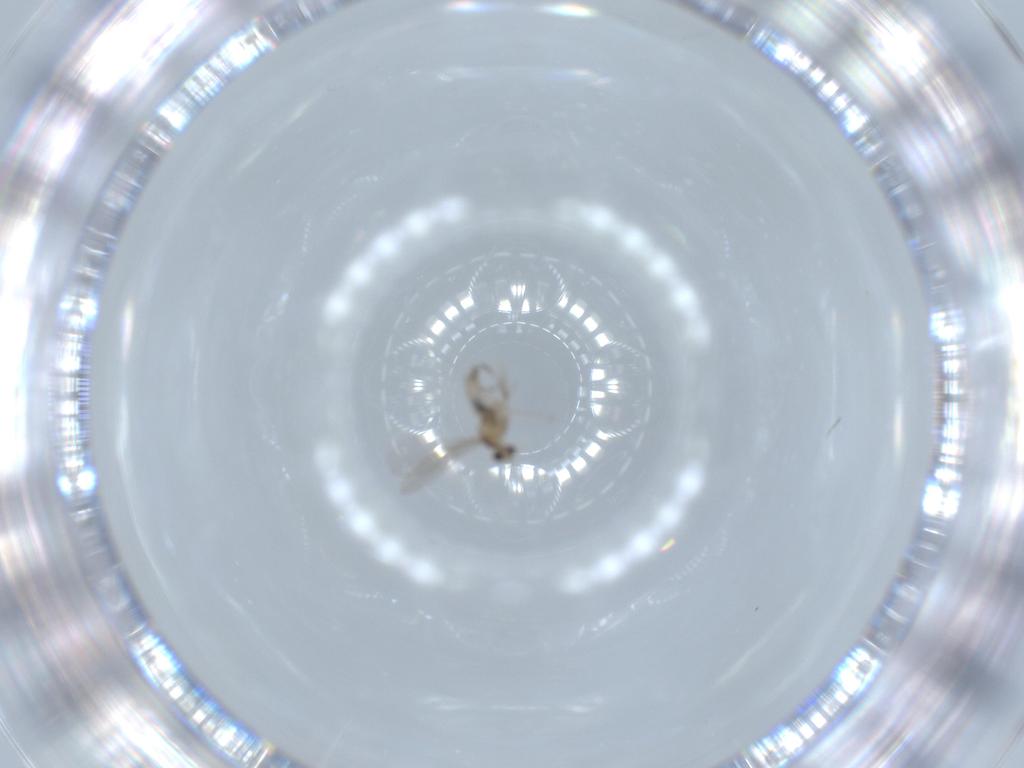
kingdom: Animalia
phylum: Arthropoda
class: Insecta
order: Diptera
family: Cecidomyiidae
